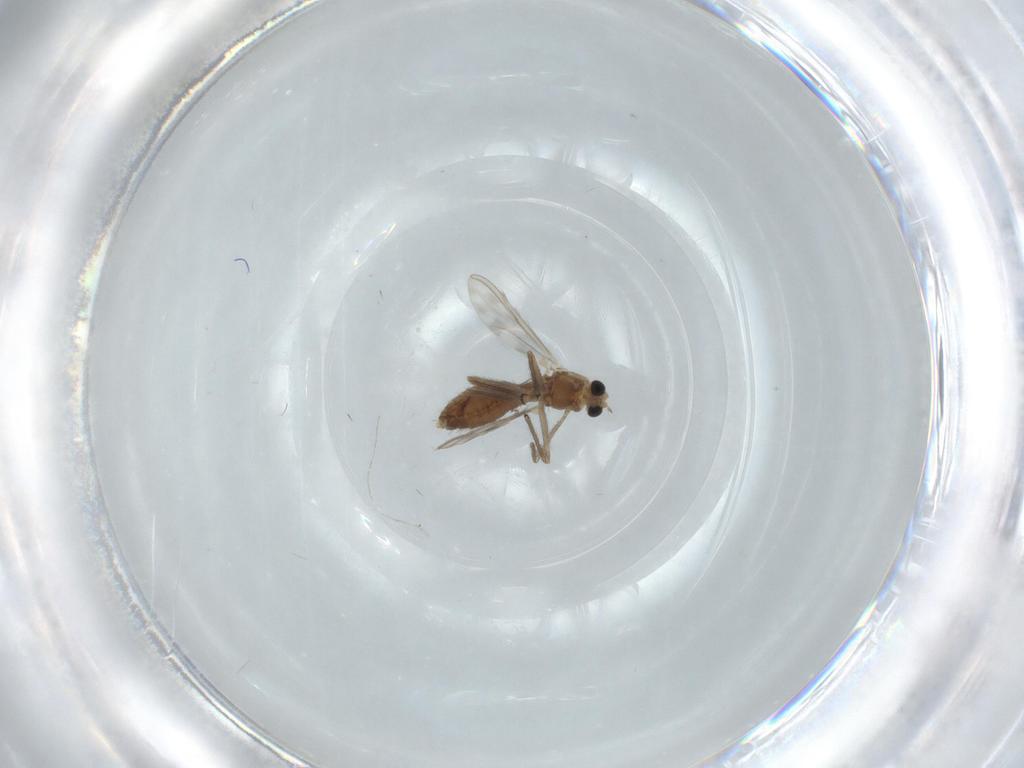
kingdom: Animalia
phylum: Arthropoda
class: Insecta
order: Diptera
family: Chironomidae
